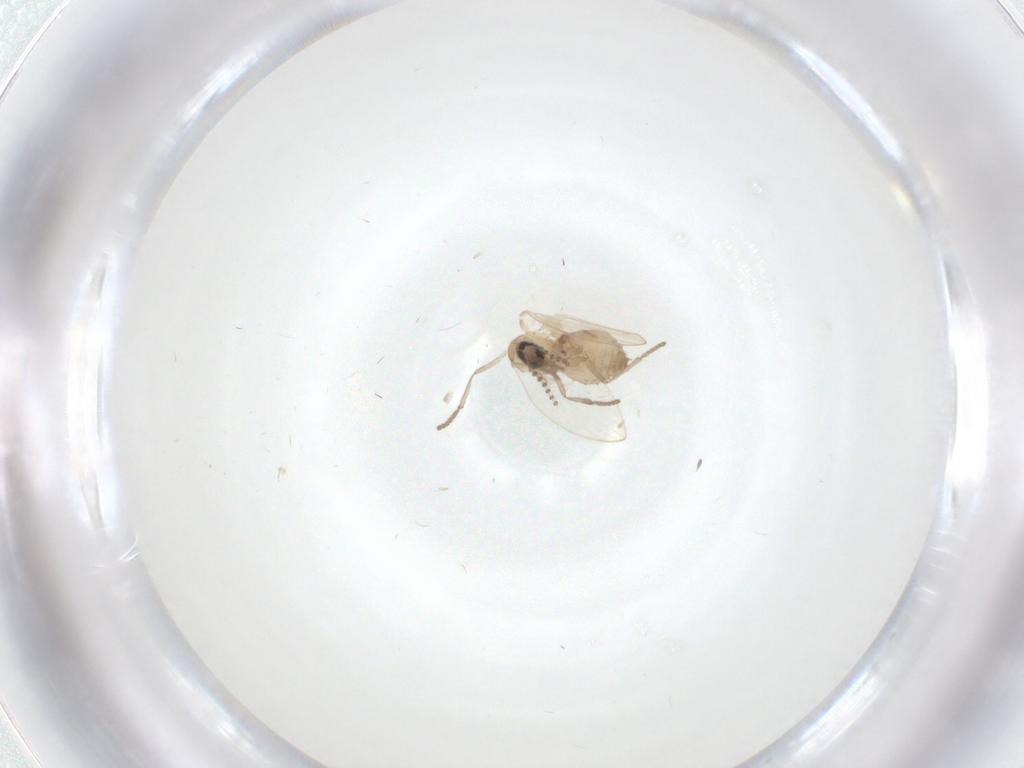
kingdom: Animalia
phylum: Arthropoda
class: Insecta
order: Diptera
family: Psychodidae
